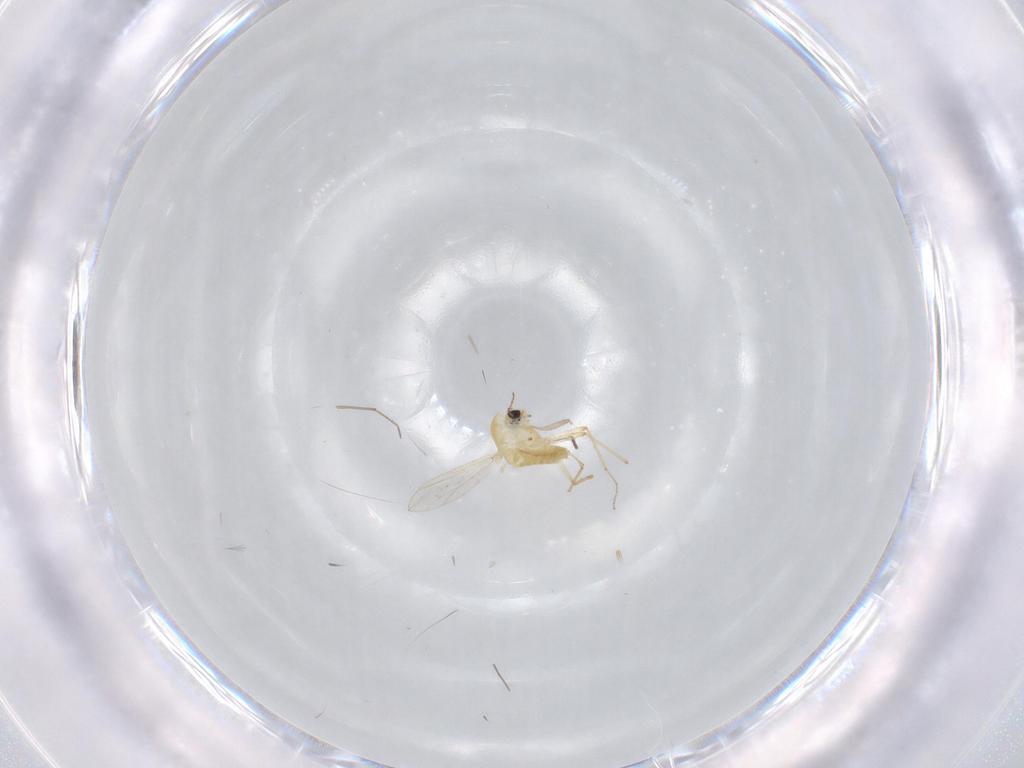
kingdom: Animalia
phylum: Arthropoda
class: Insecta
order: Diptera
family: Chironomidae
